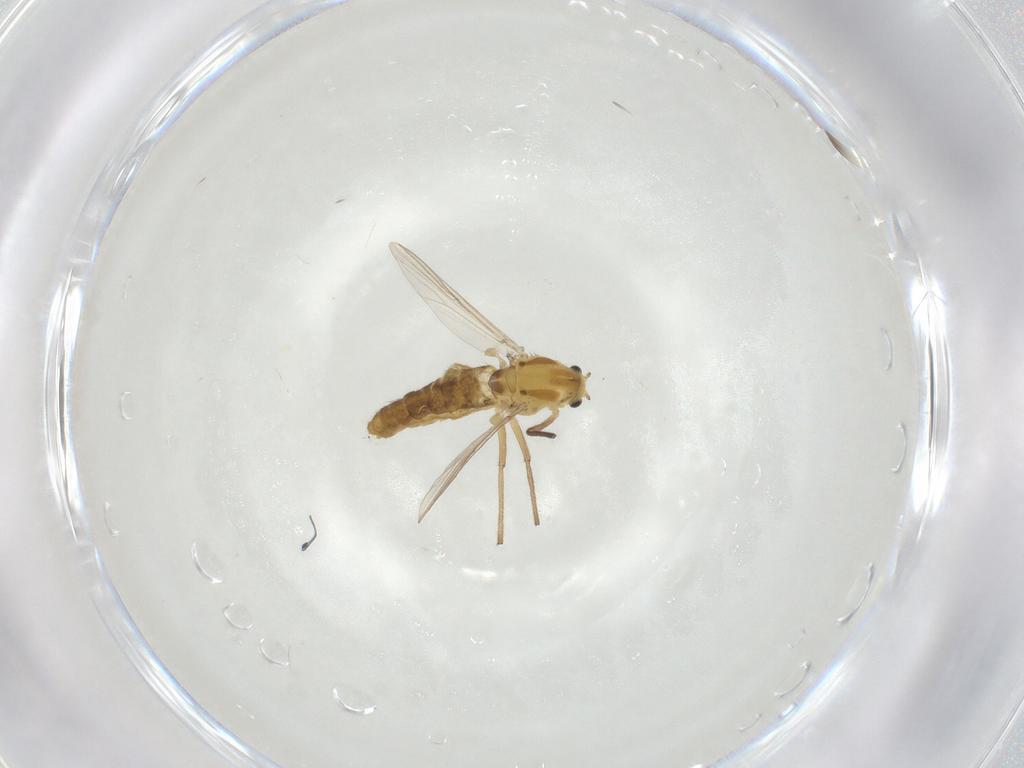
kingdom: Animalia
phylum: Arthropoda
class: Insecta
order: Diptera
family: Chironomidae
